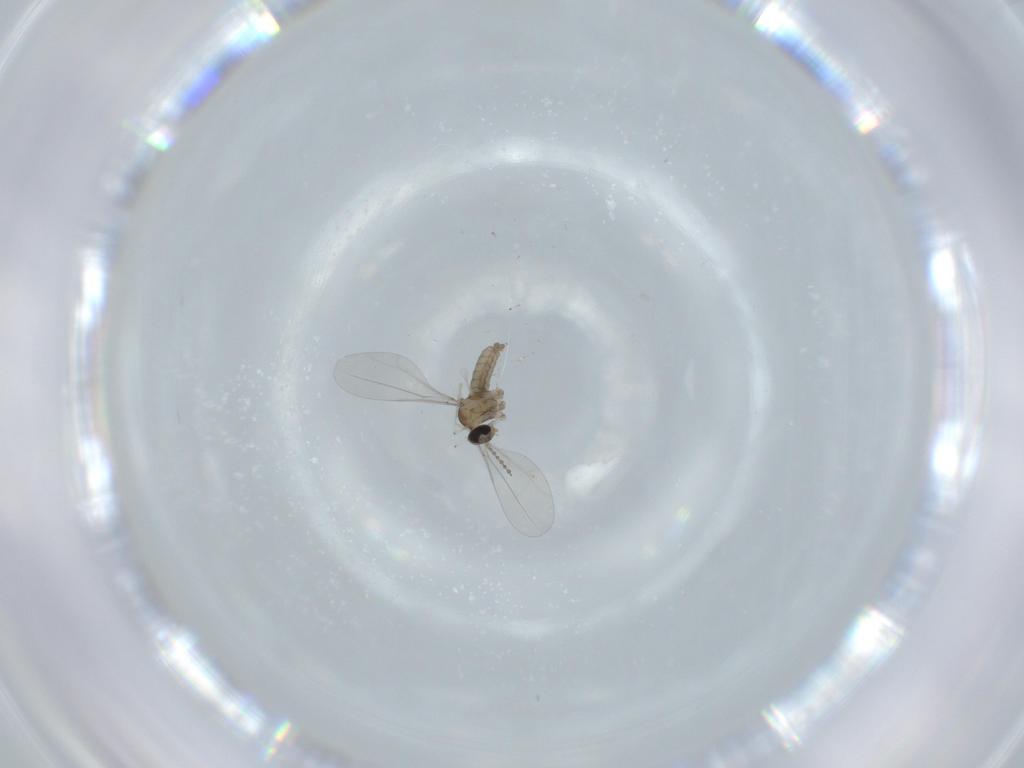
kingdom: Animalia
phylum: Arthropoda
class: Insecta
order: Diptera
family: Cecidomyiidae
